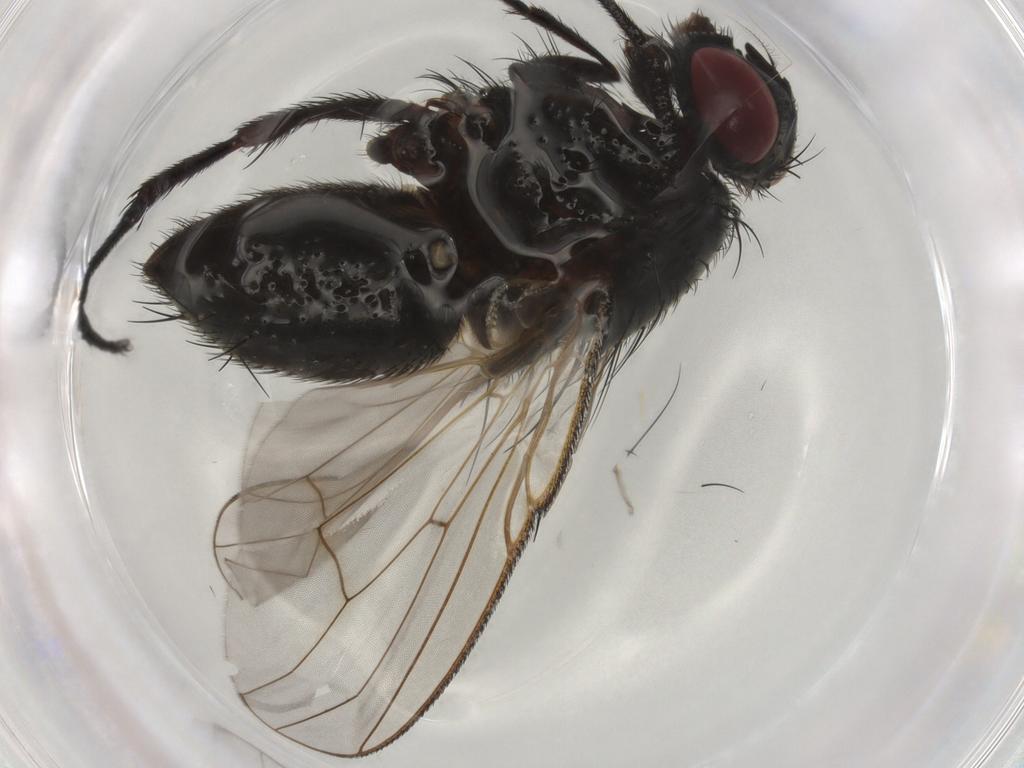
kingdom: Animalia
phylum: Arthropoda
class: Insecta
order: Diptera
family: Muscidae
